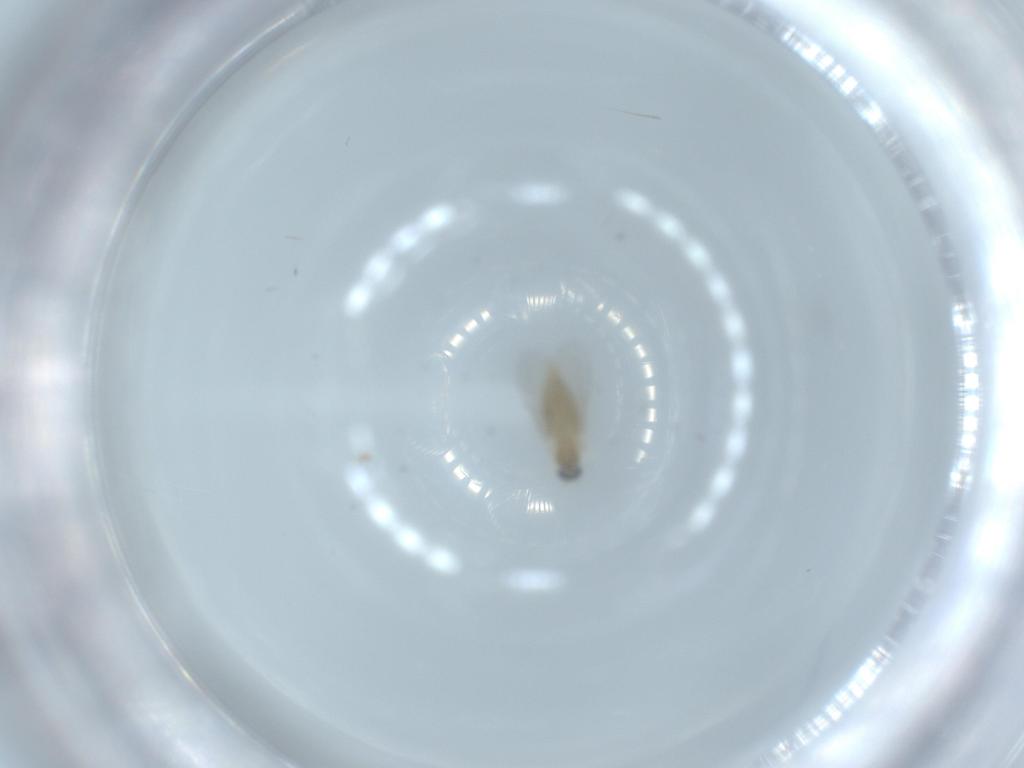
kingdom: Animalia
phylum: Arthropoda
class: Insecta
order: Diptera
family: Cecidomyiidae
